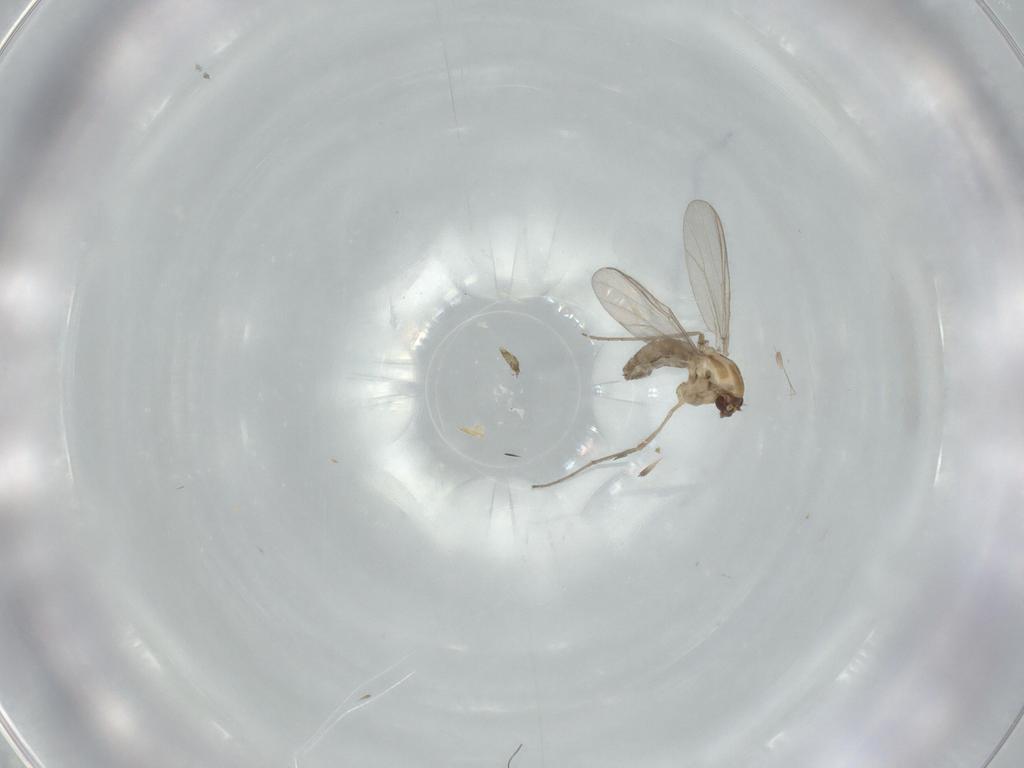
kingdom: Animalia
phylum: Arthropoda
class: Insecta
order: Diptera
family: Chironomidae
